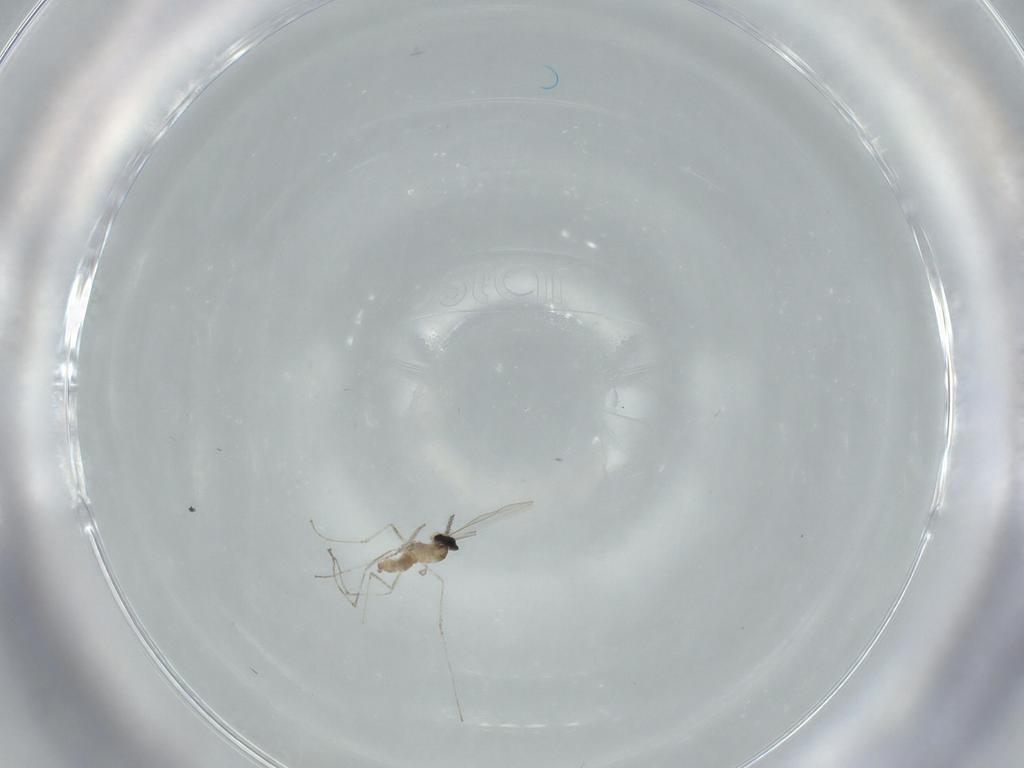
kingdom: Animalia
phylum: Arthropoda
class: Insecta
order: Diptera
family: Cecidomyiidae
